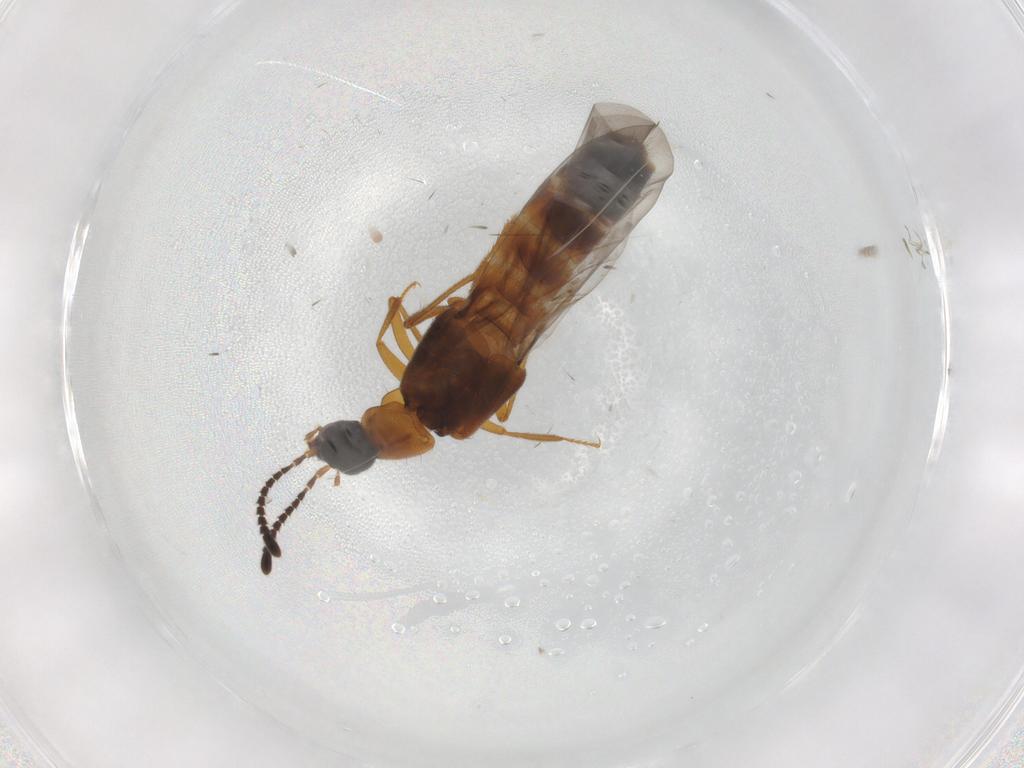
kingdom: Animalia
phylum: Arthropoda
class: Insecta
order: Coleoptera
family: Staphylinidae
